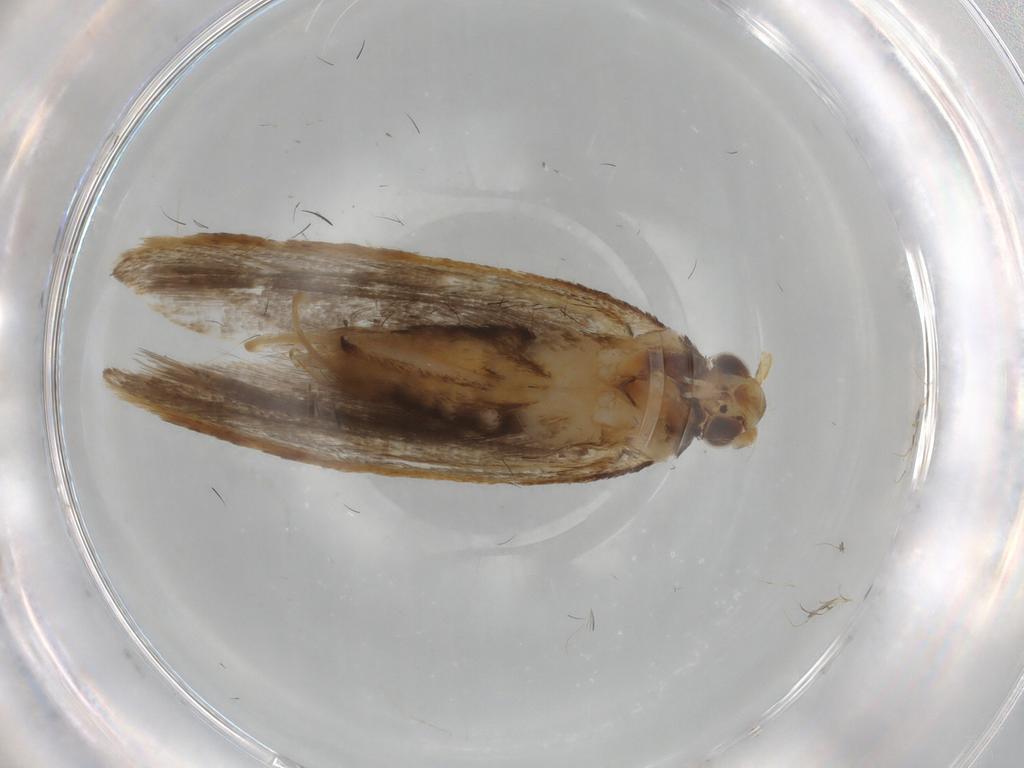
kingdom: Animalia
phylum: Arthropoda
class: Insecta
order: Lepidoptera
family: Lecithoceridae
